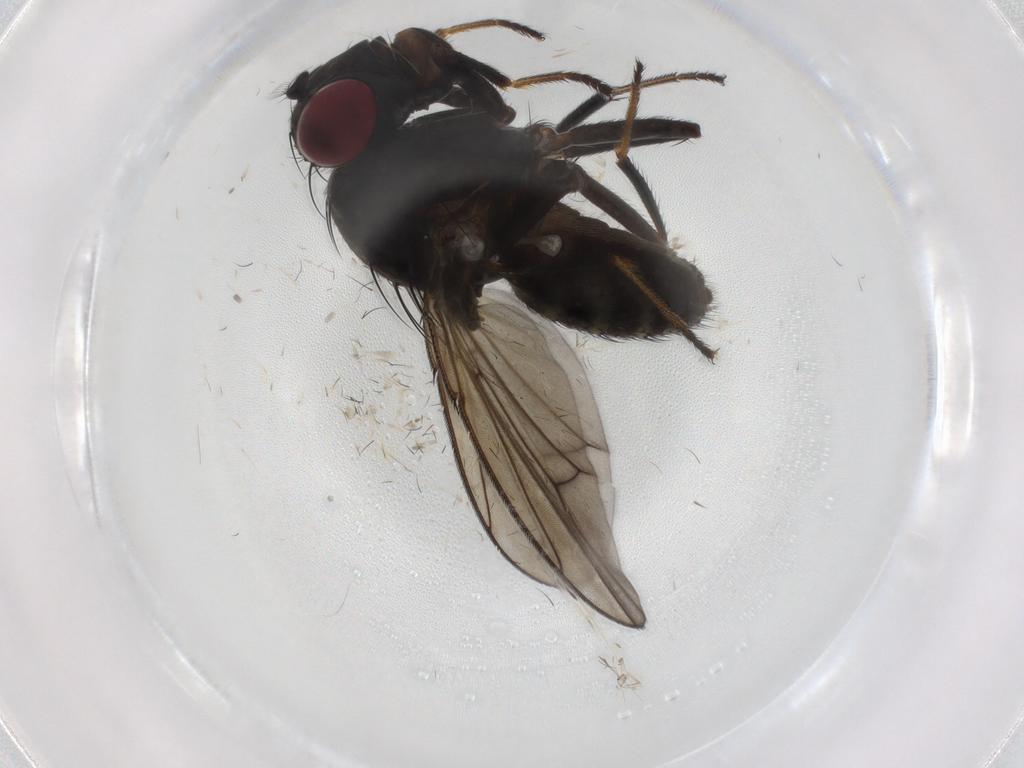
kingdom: Animalia
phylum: Arthropoda
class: Insecta
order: Diptera
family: Ephydridae
